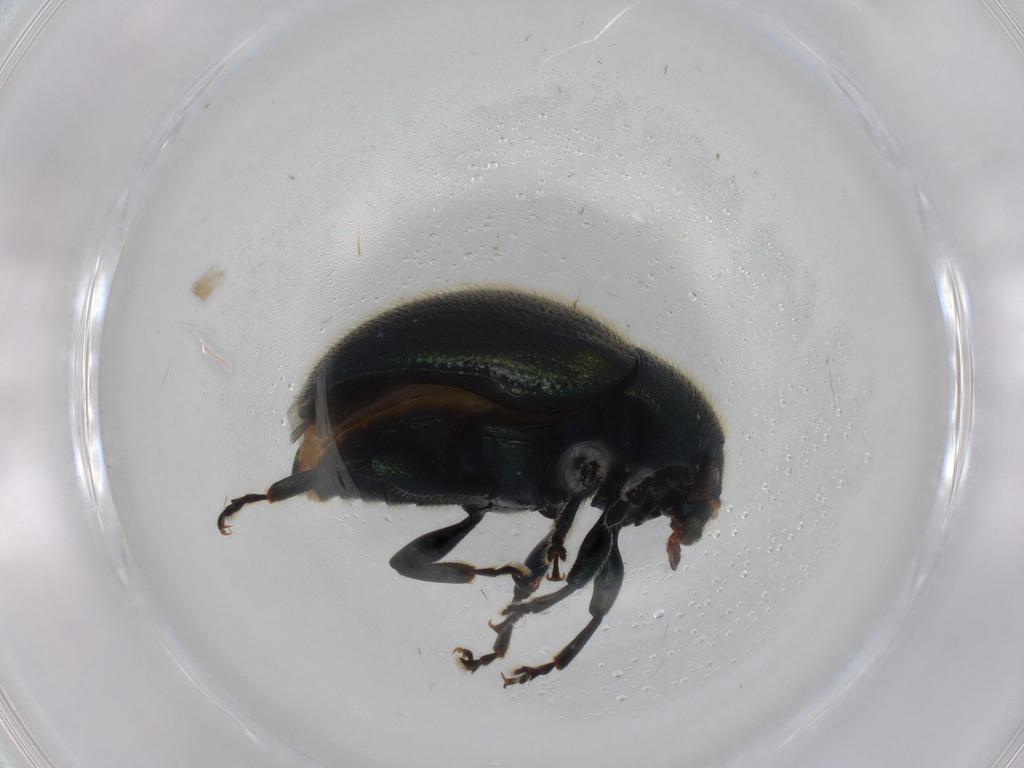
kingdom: Animalia
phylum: Arthropoda
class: Insecta
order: Coleoptera
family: Chrysomelidae
